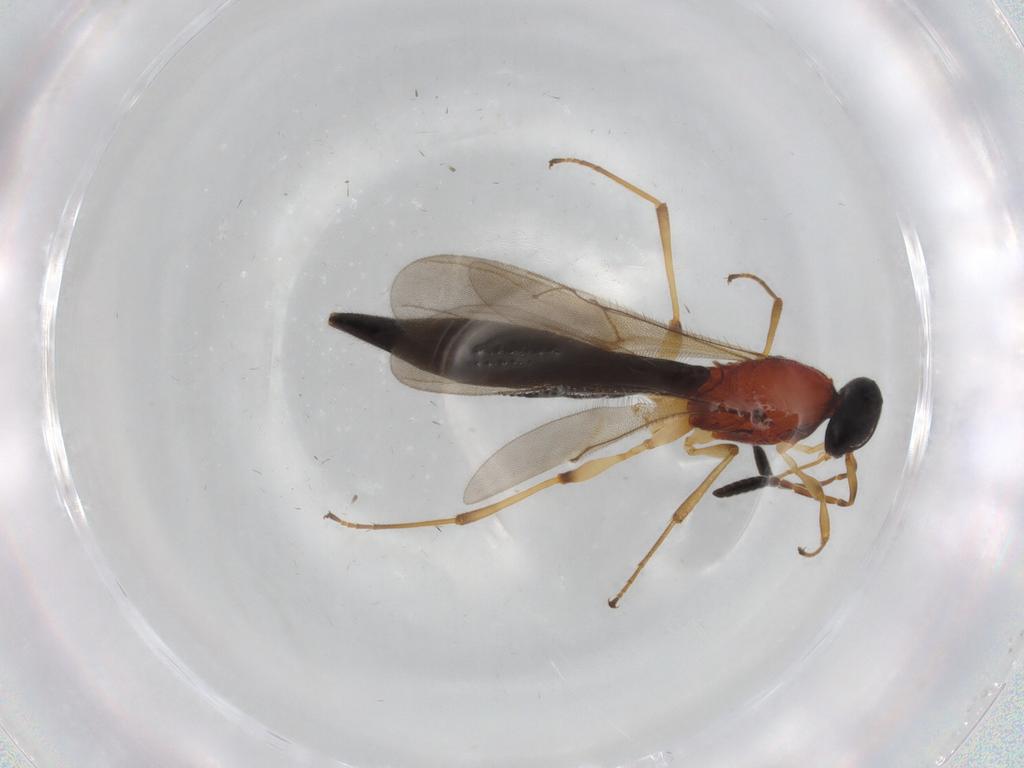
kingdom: Animalia
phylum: Arthropoda
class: Insecta
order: Hymenoptera
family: Scelionidae
